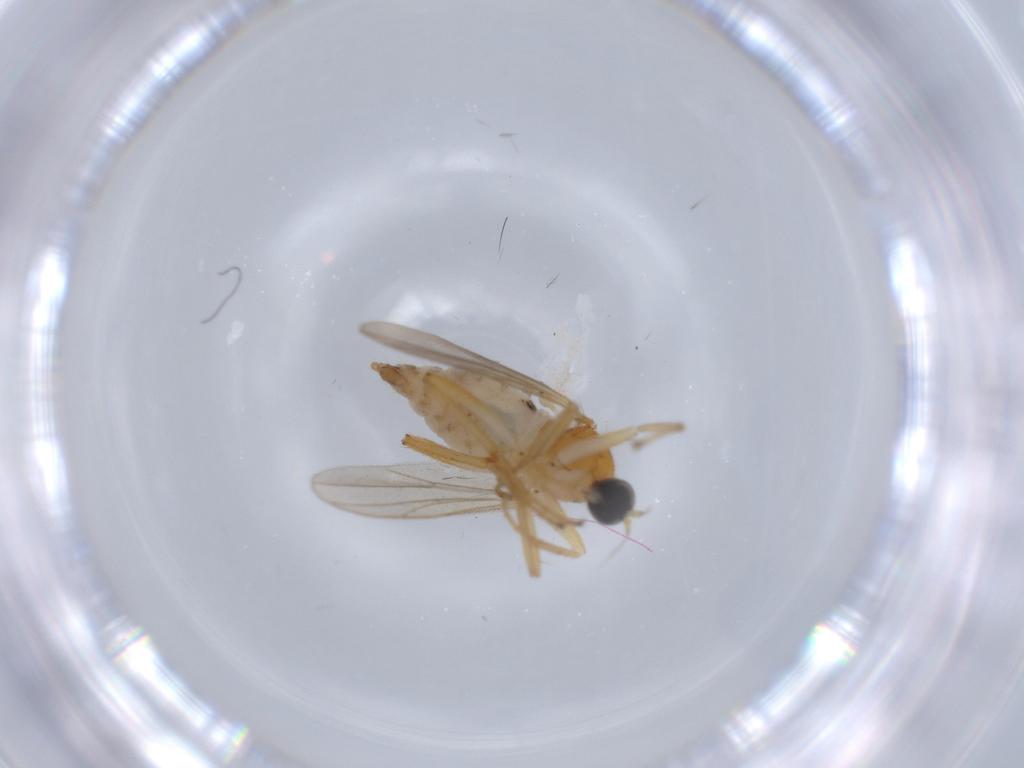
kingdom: Animalia
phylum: Arthropoda
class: Insecta
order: Diptera
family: Hybotidae
